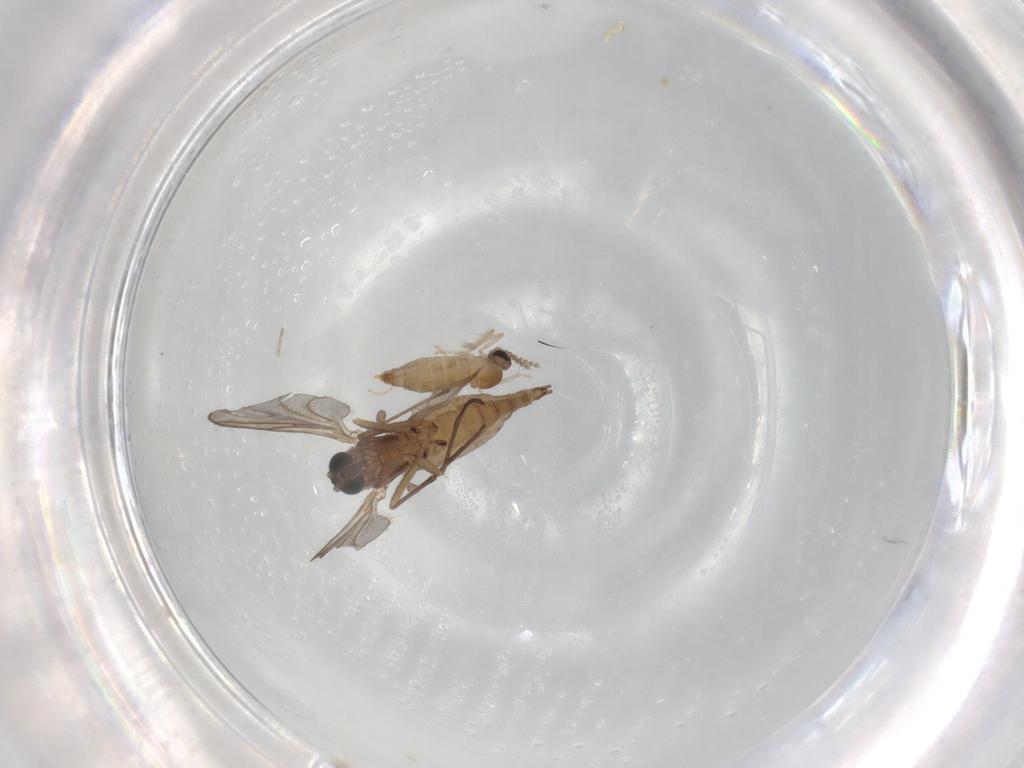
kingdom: Animalia
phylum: Arthropoda
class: Insecta
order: Diptera
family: Sciaridae
